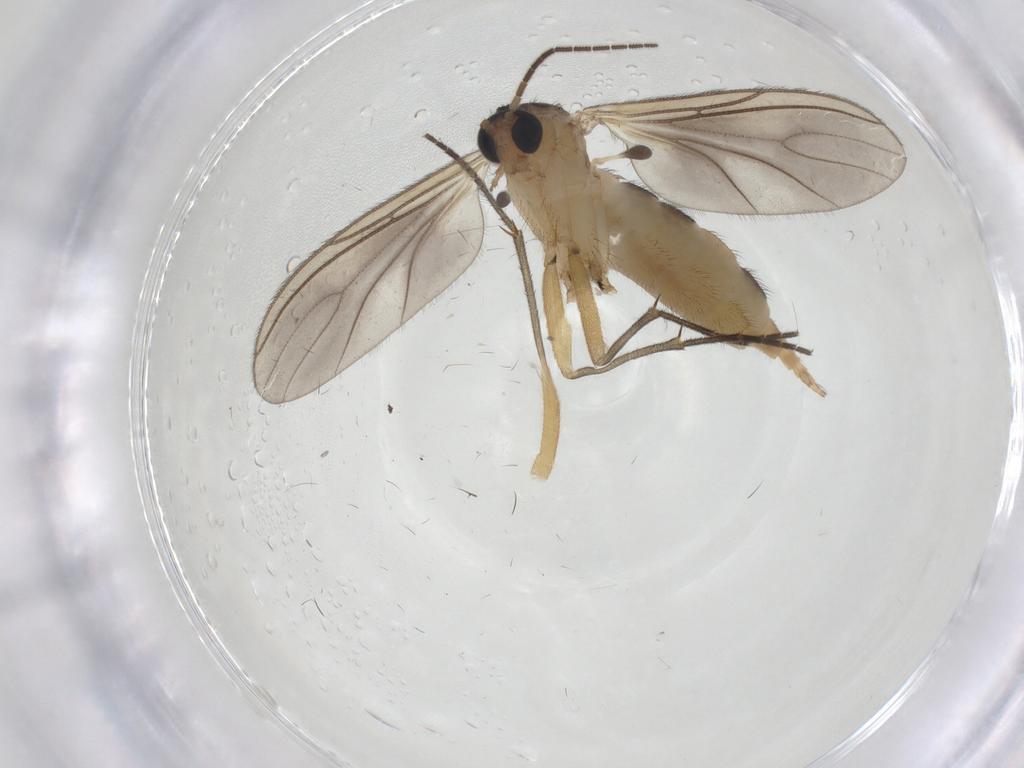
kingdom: Animalia
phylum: Arthropoda
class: Insecta
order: Diptera
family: Sciaridae
